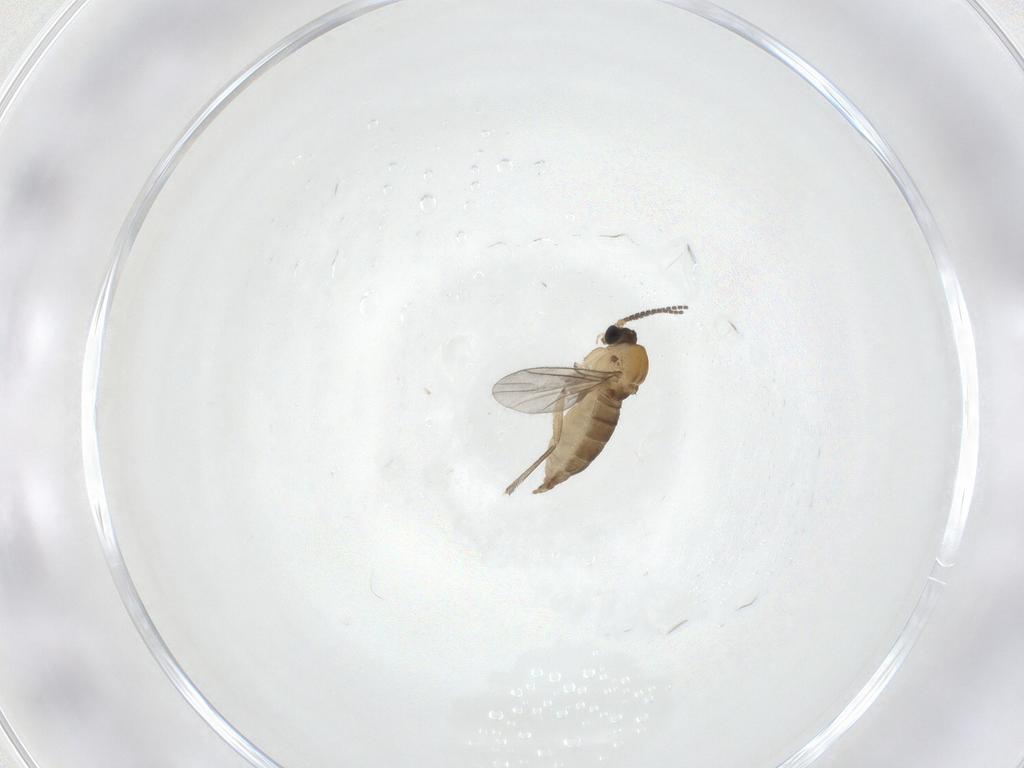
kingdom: Animalia
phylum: Arthropoda
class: Insecta
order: Diptera
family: Sciaridae
